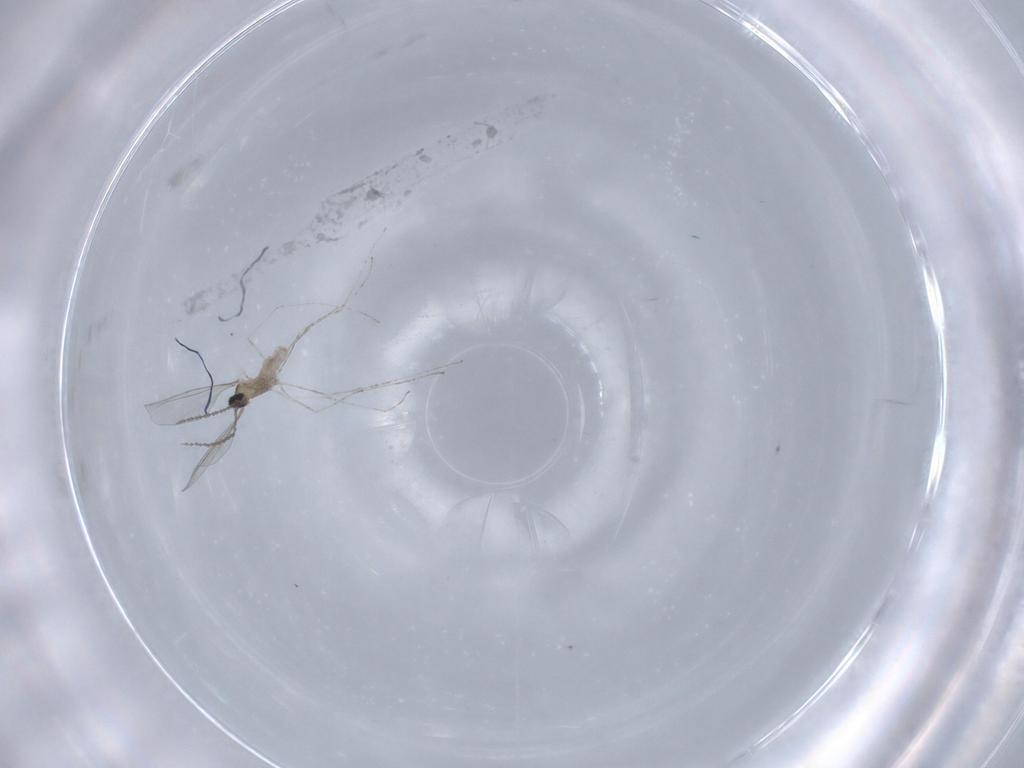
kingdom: Animalia
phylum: Arthropoda
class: Insecta
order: Diptera
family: Cecidomyiidae
